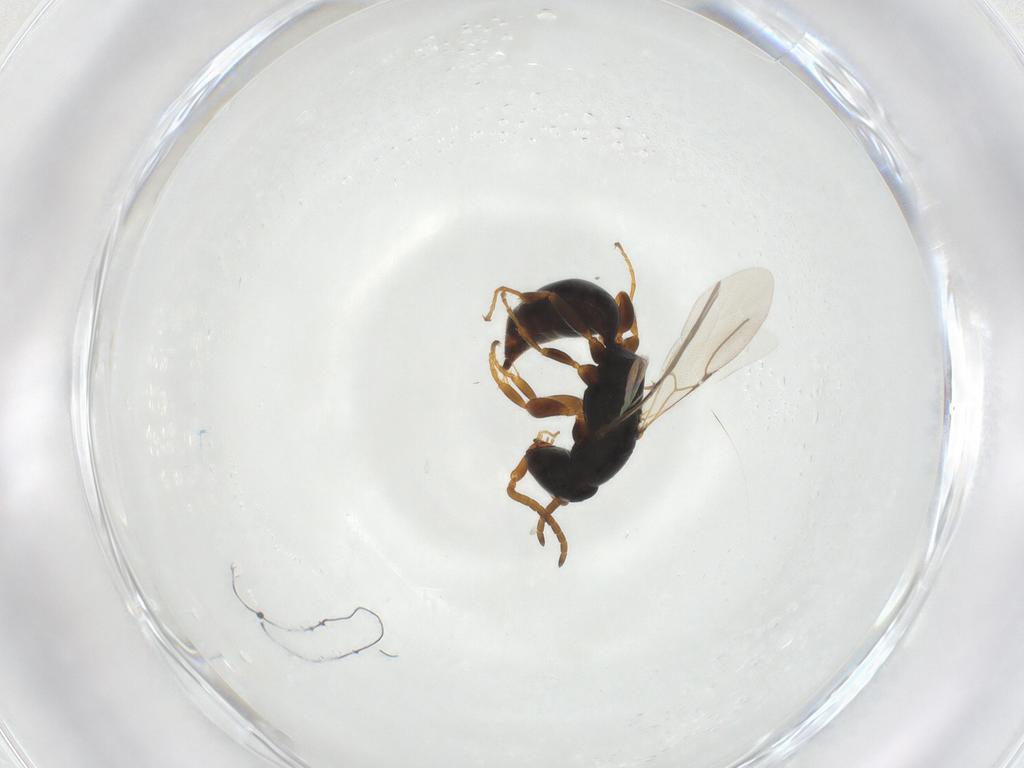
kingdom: Animalia
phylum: Arthropoda
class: Insecta
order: Hymenoptera
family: Bethylidae
